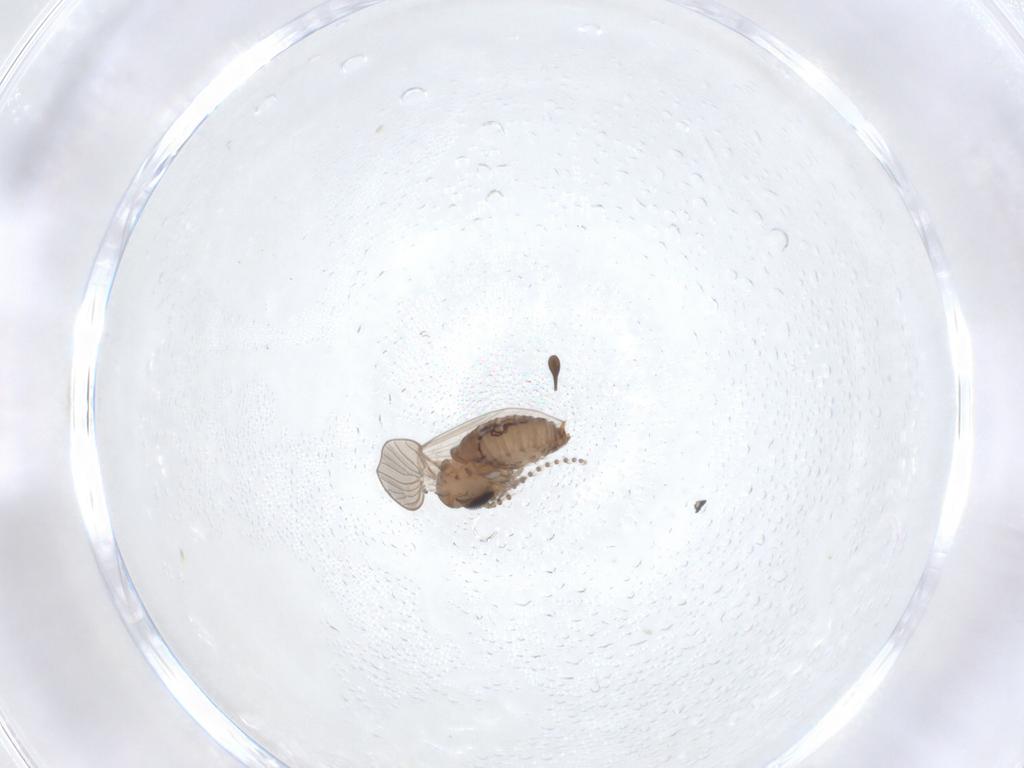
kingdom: Animalia
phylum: Arthropoda
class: Insecta
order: Diptera
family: Psychodidae
